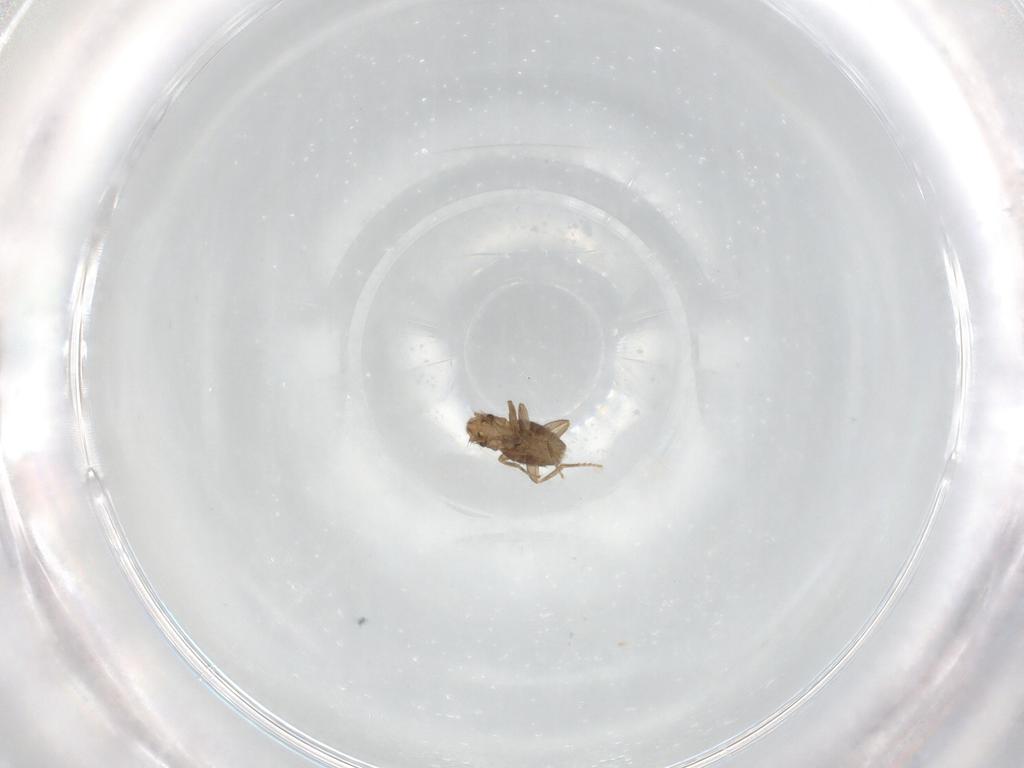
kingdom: Animalia
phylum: Arthropoda
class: Insecta
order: Diptera
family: Phoridae
